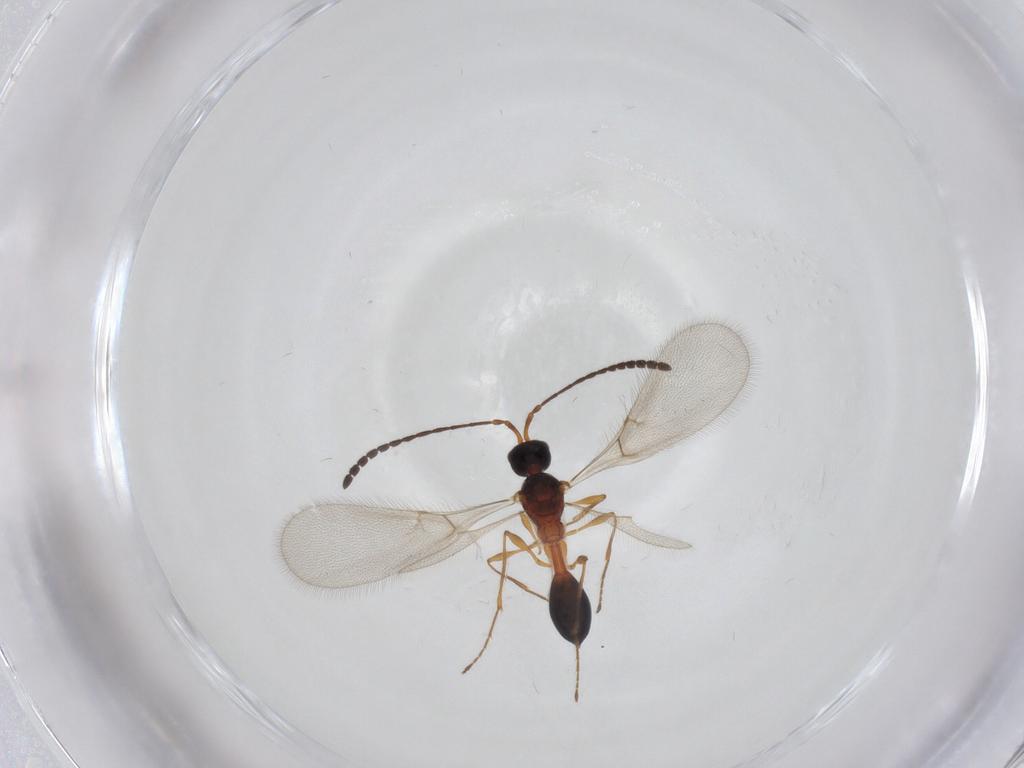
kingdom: Animalia
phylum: Arthropoda
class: Insecta
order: Hymenoptera
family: Diapriidae
